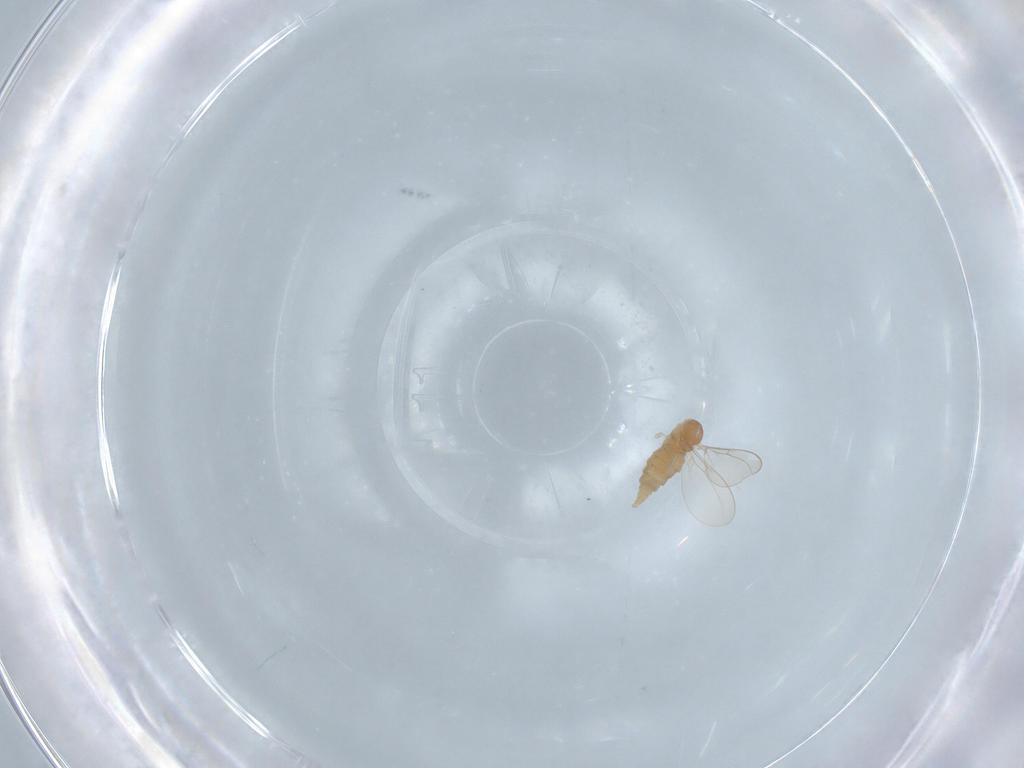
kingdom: Animalia
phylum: Arthropoda
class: Insecta
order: Diptera
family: Cecidomyiidae
